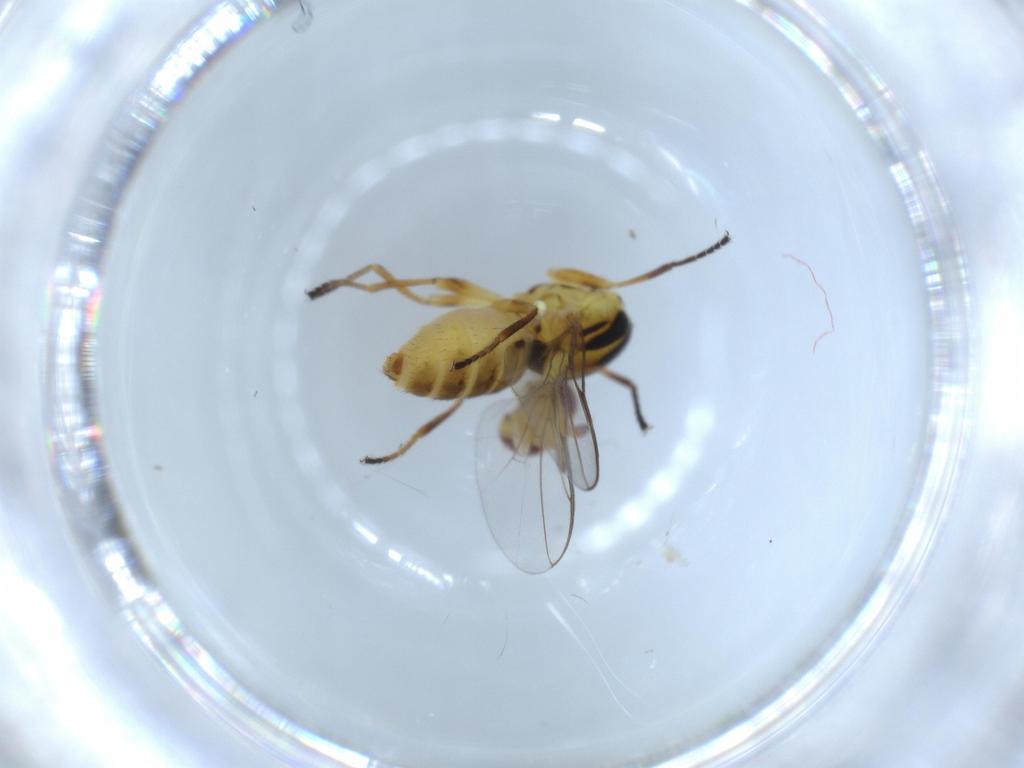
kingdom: Animalia
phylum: Arthropoda
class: Insecta
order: Diptera
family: Chloropidae
